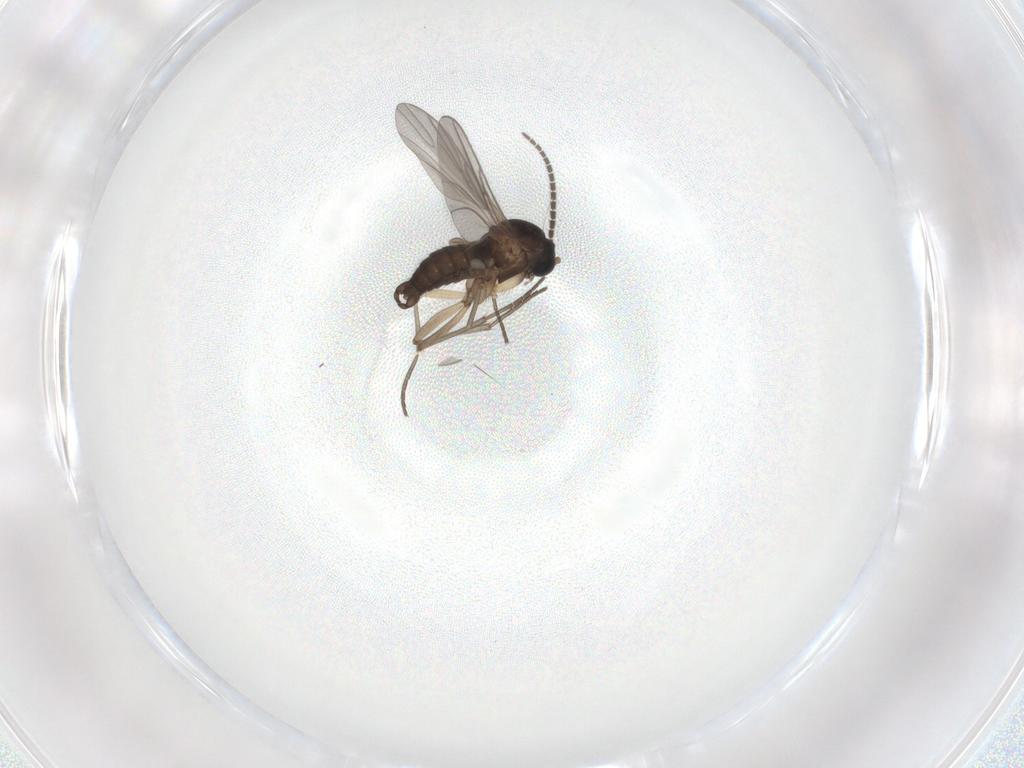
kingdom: Animalia
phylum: Arthropoda
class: Insecta
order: Diptera
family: Sciaridae
